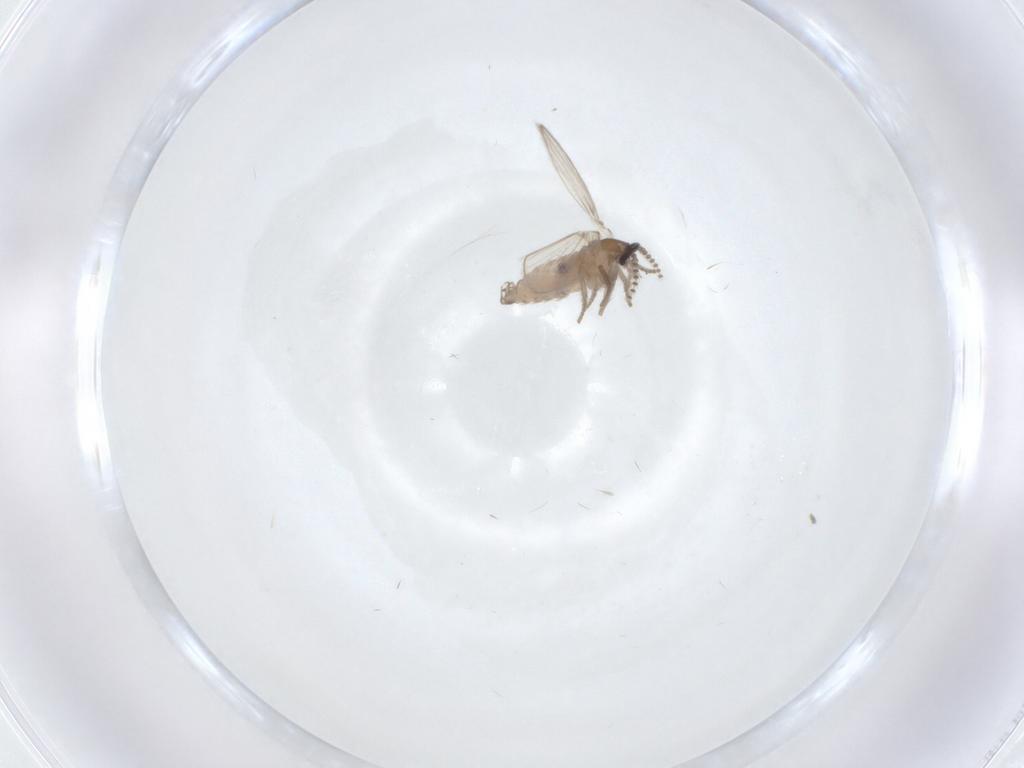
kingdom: Animalia
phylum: Arthropoda
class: Insecta
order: Diptera
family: Psychodidae
